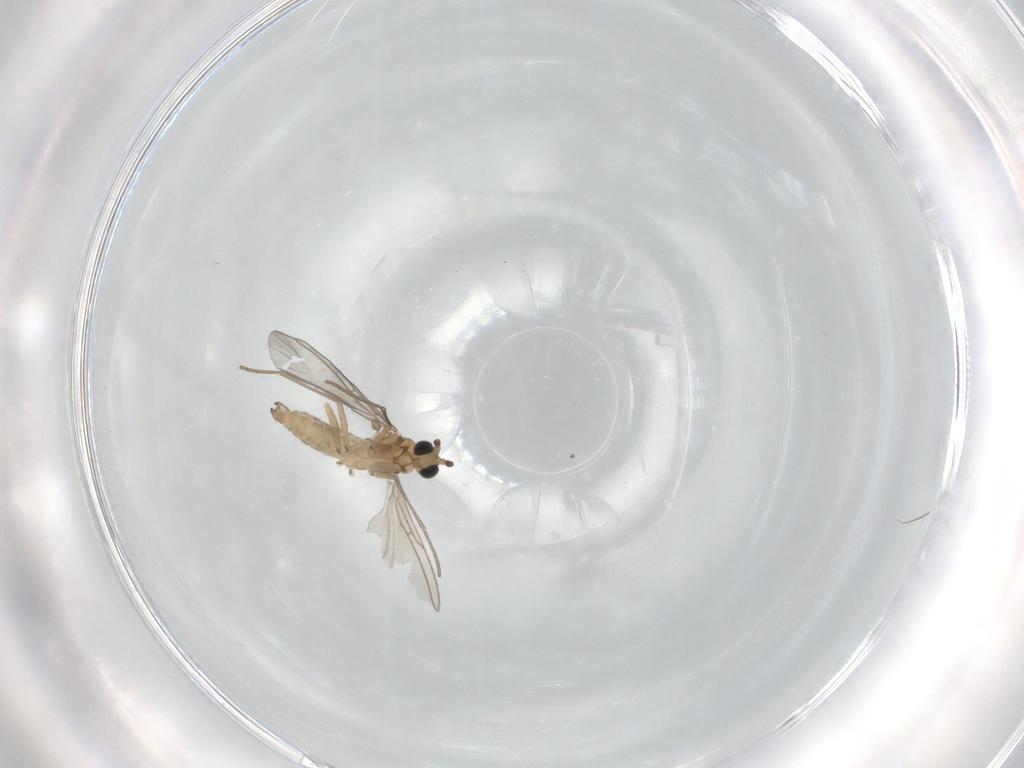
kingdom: Animalia
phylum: Arthropoda
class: Insecta
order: Diptera
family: Sciaridae
